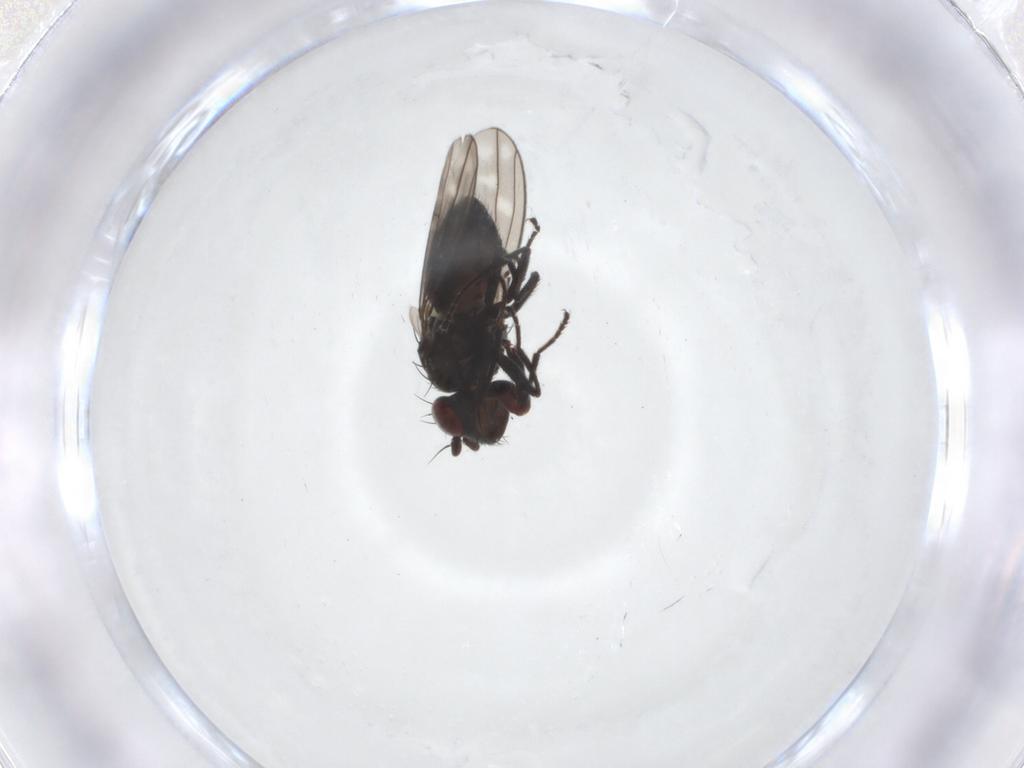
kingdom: Animalia
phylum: Arthropoda
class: Insecta
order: Diptera
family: Ephydridae
